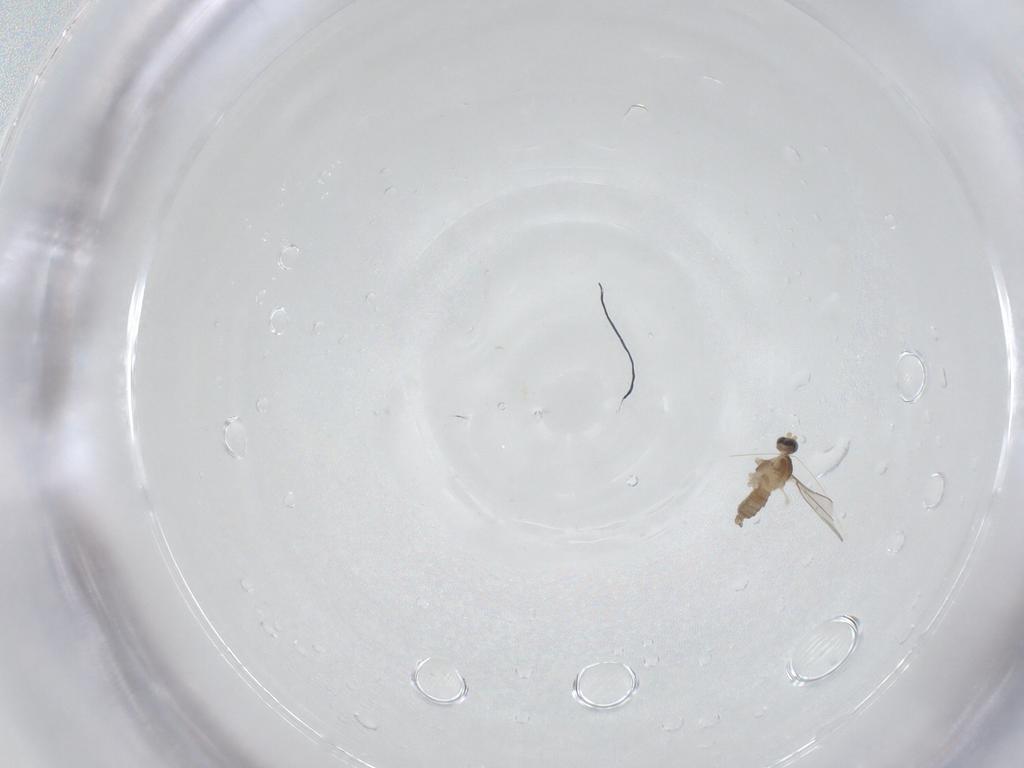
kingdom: Animalia
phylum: Arthropoda
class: Insecta
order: Diptera
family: Cecidomyiidae
